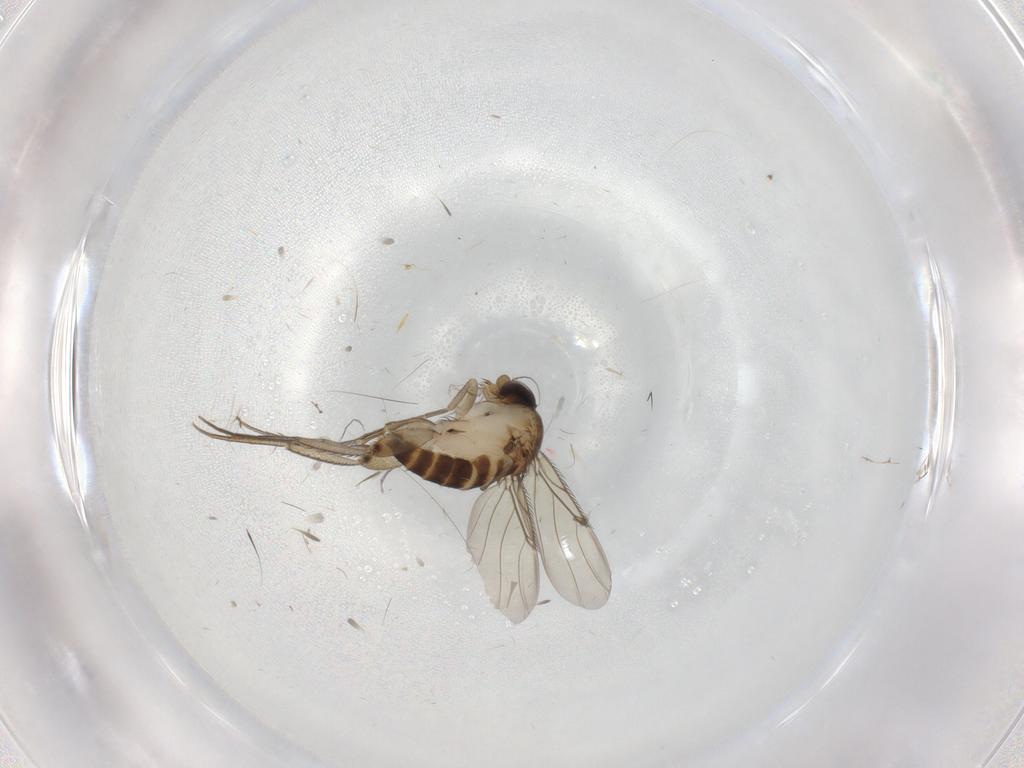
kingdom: Animalia
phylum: Arthropoda
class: Insecta
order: Diptera
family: Phoridae
